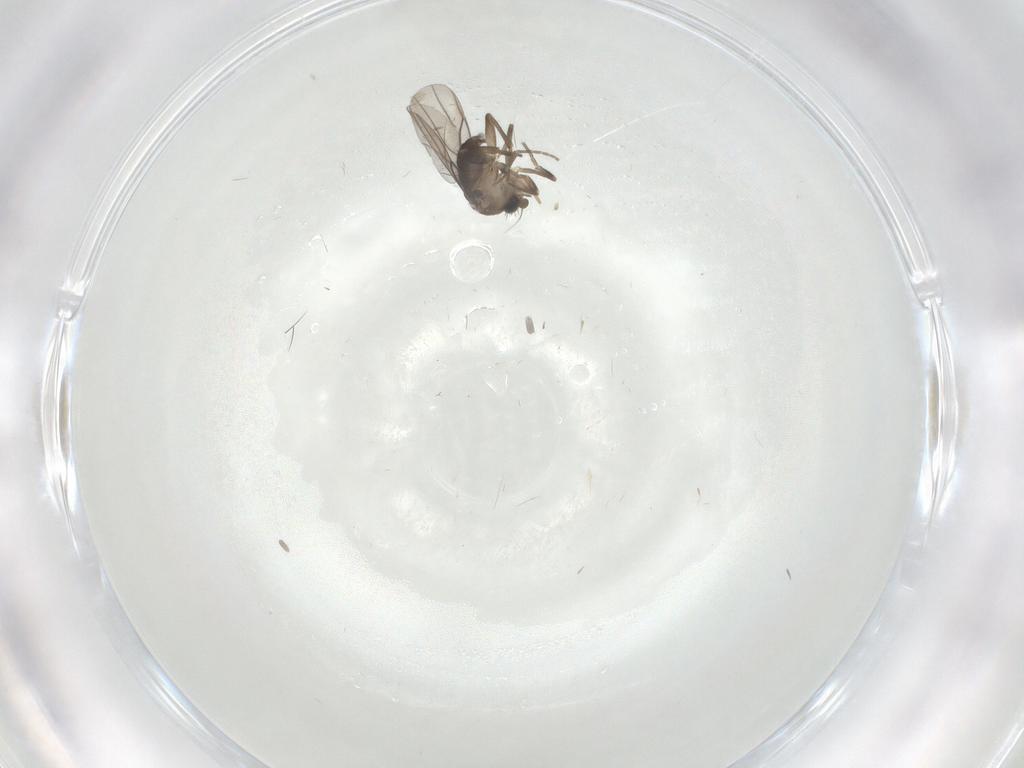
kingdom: Animalia
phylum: Arthropoda
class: Insecta
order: Diptera
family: Phoridae
